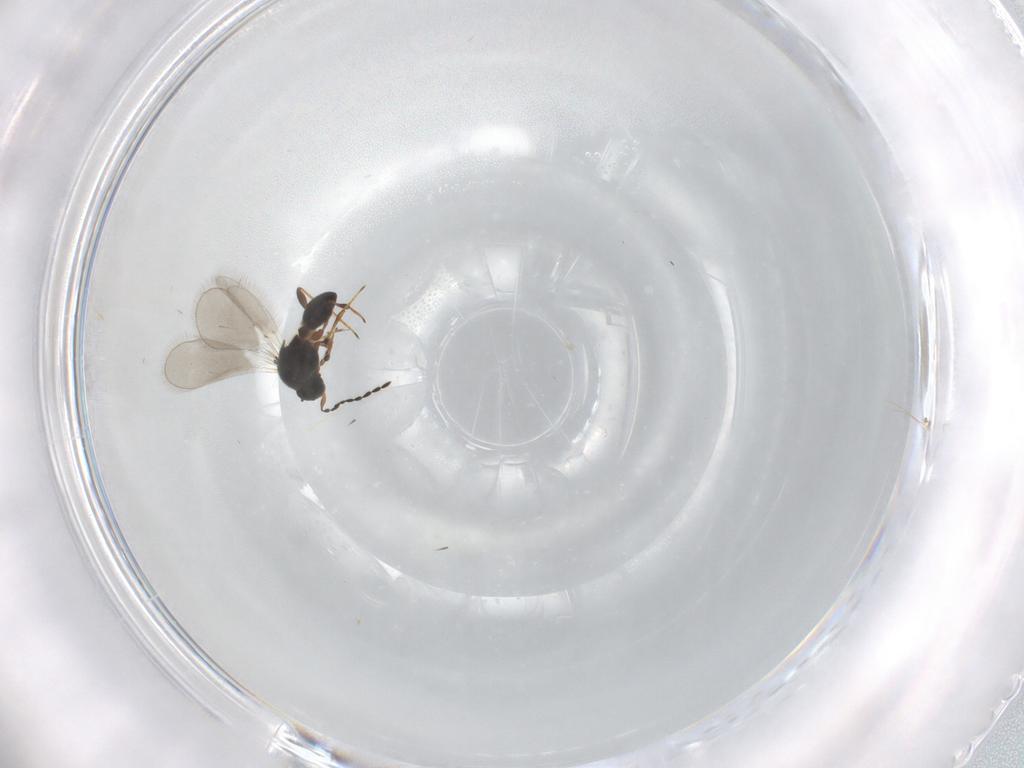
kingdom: Animalia
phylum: Arthropoda
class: Insecta
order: Hymenoptera
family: Platygastridae
